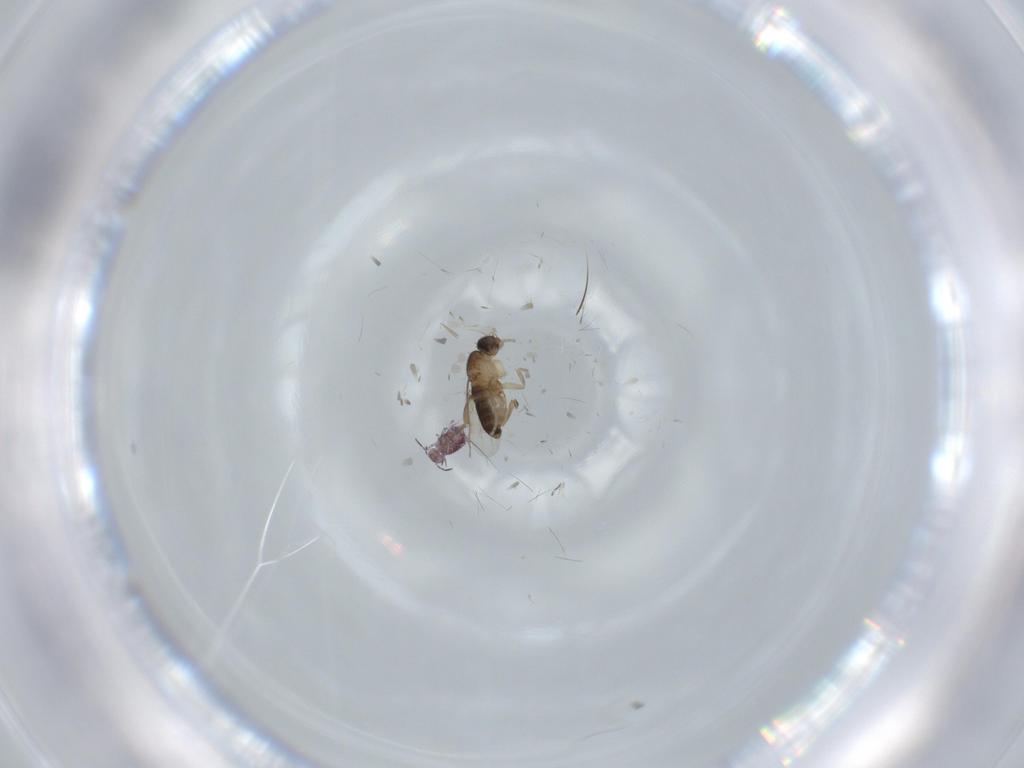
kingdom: Animalia
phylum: Arthropoda
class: Insecta
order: Diptera
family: Phoridae
